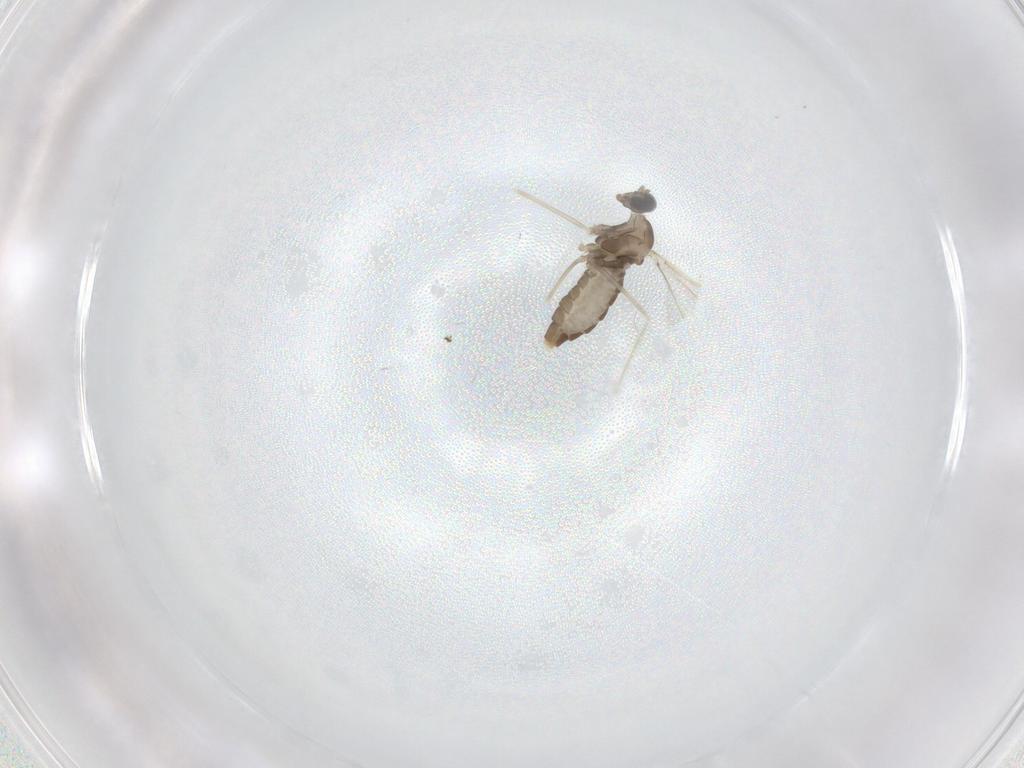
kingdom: Animalia
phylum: Arthropoda
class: Insecta
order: Diptera
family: Cecidomyiidae
